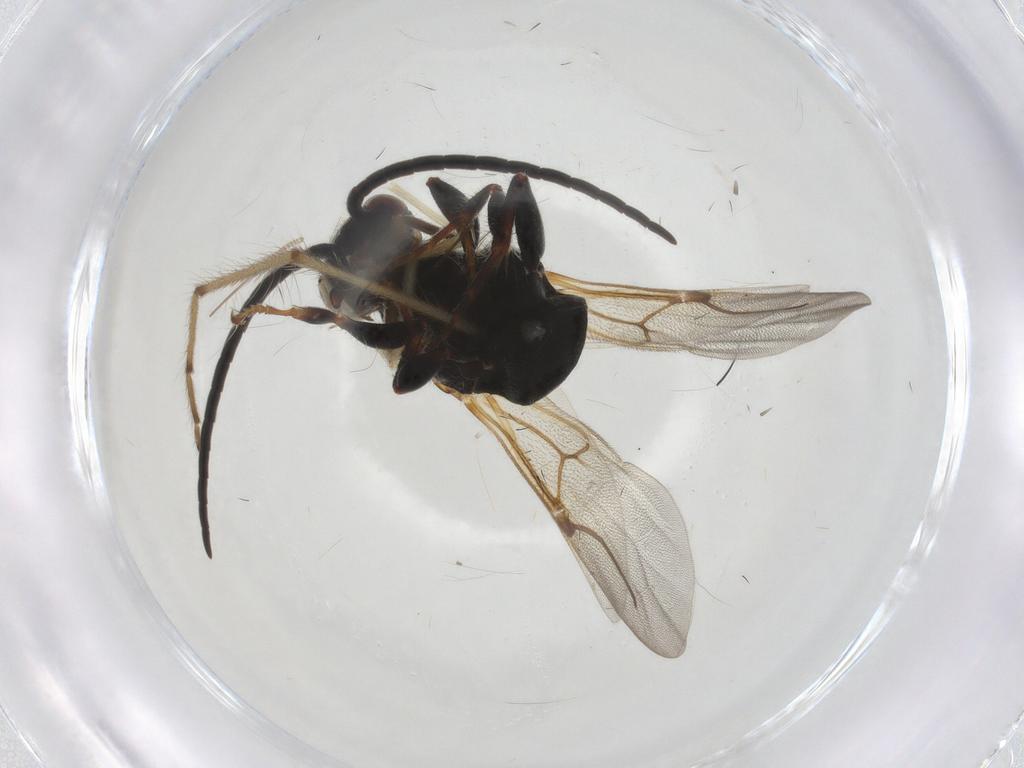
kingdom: Animalia
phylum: Arthropoda
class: Insecta
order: Hymenoptera
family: Bethylidae
